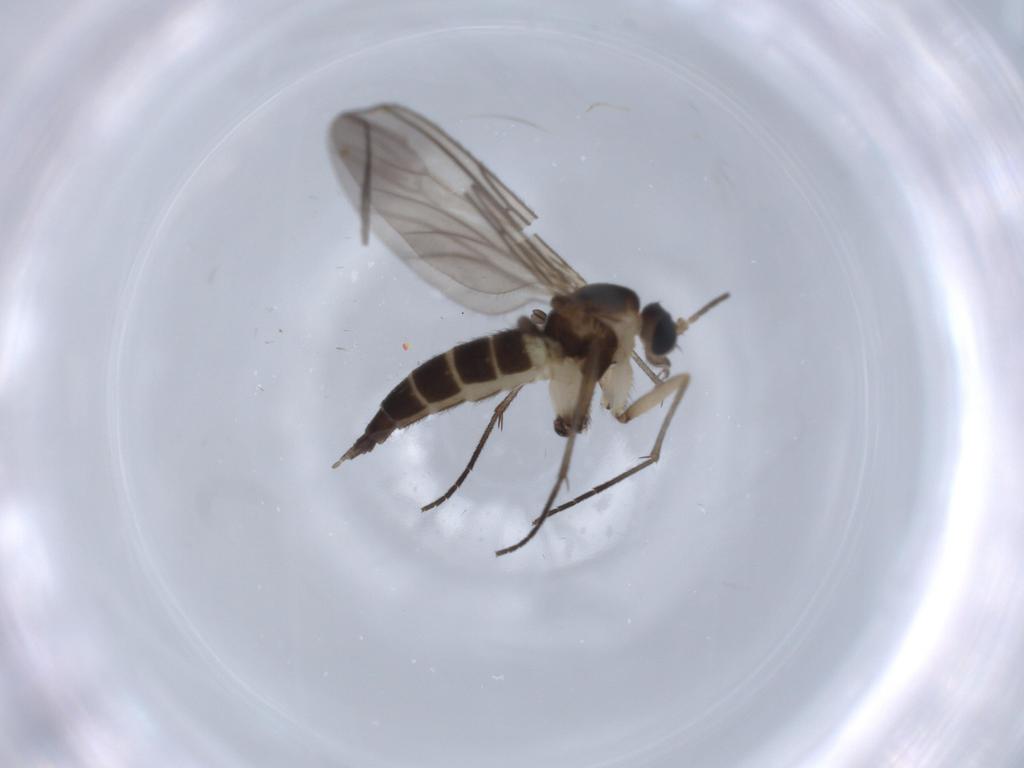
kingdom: Animalia
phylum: Arthropoda
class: Insecta
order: Diptera
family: Sciaridae
